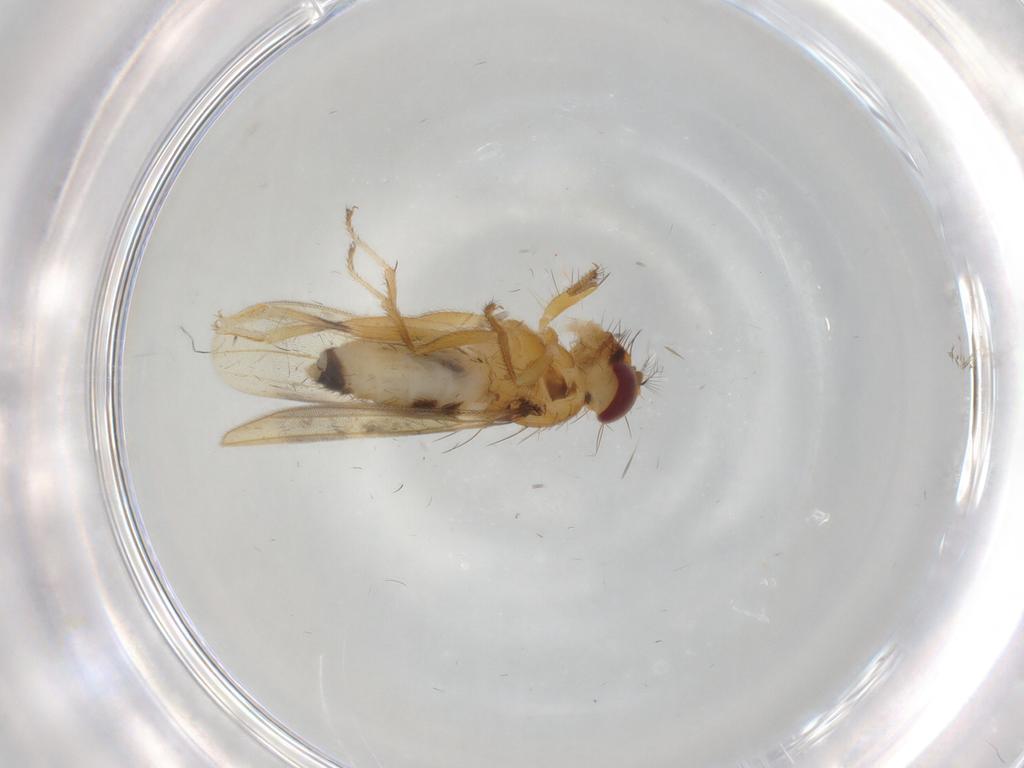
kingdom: Animalia
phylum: Arthropoda
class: Insecta
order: Diptera
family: Periscelididae
